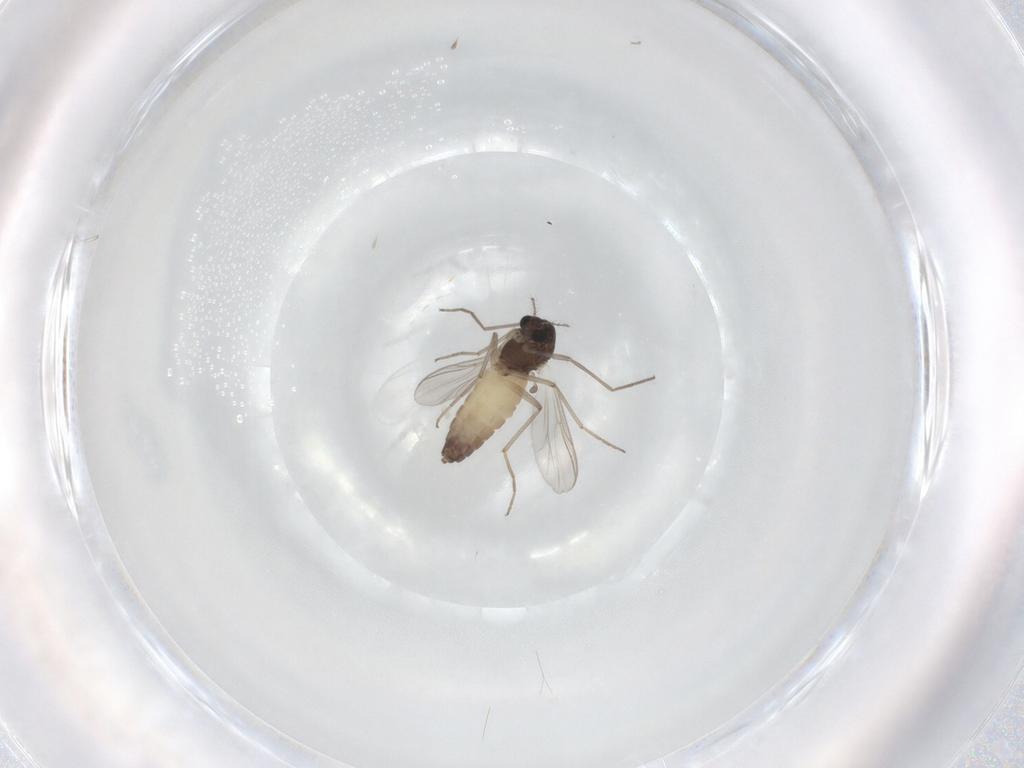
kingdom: Animalia
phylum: Arthropoda
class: Insecta
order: Diptera
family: Chironomidae
